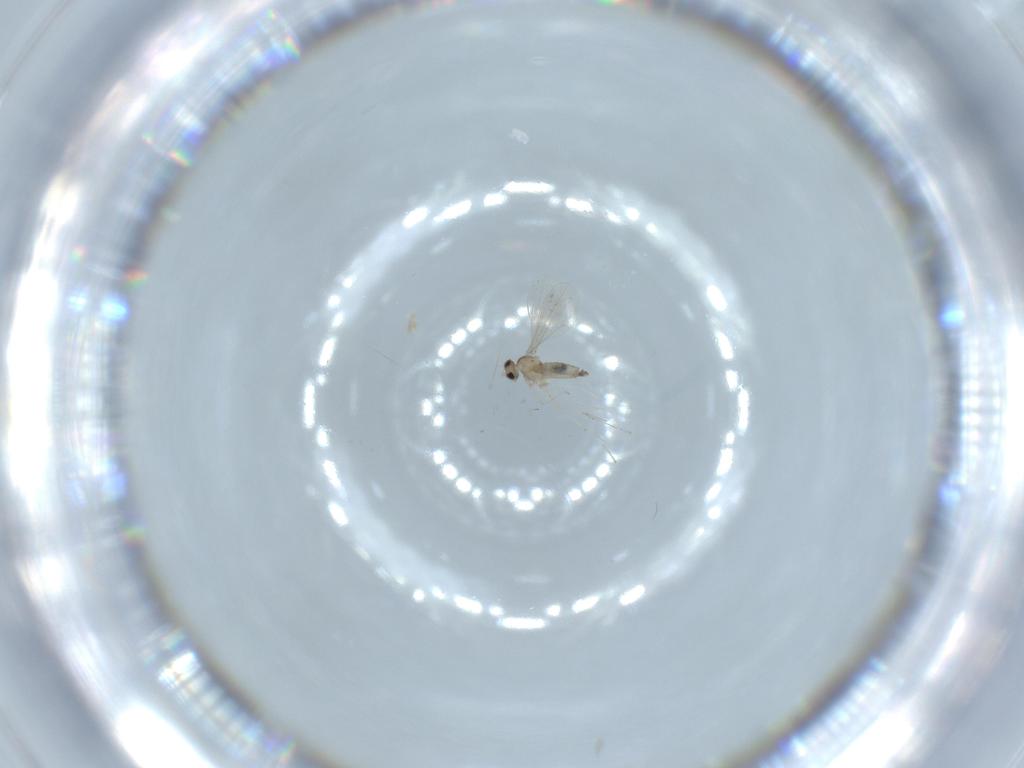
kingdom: Animalia
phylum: Arthropoda
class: Insecta
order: Diptera
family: Cecidomyiidae
